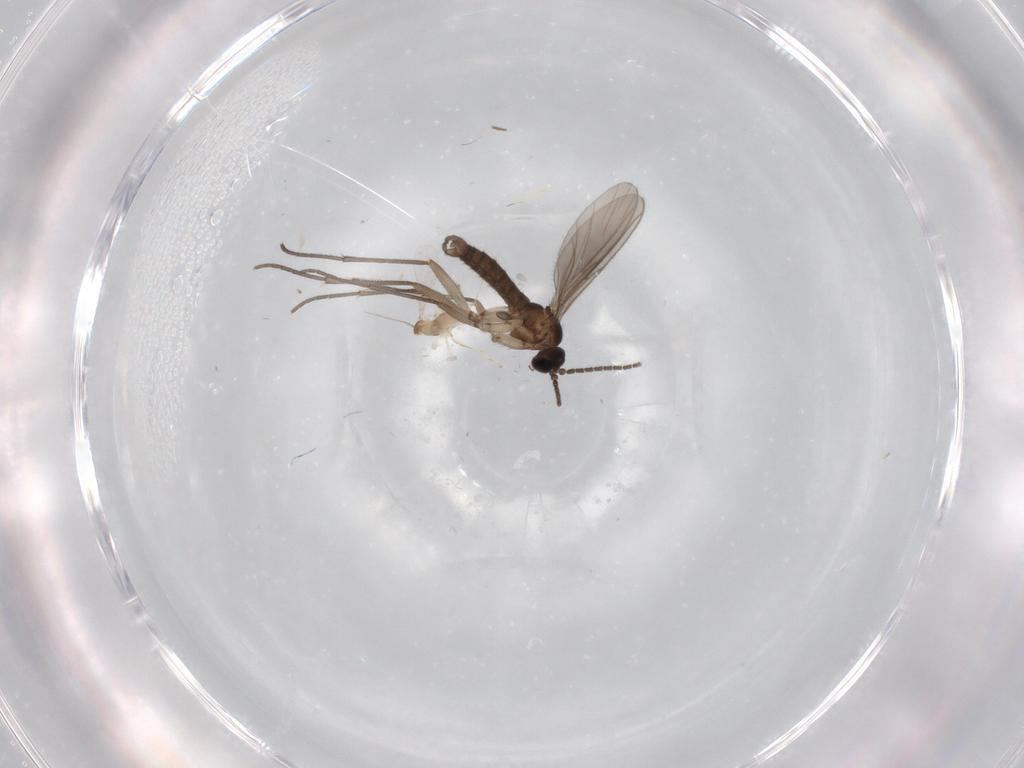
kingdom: Animalia
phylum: Arthropoda
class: Insecta
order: Diptera
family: Sciaridae
